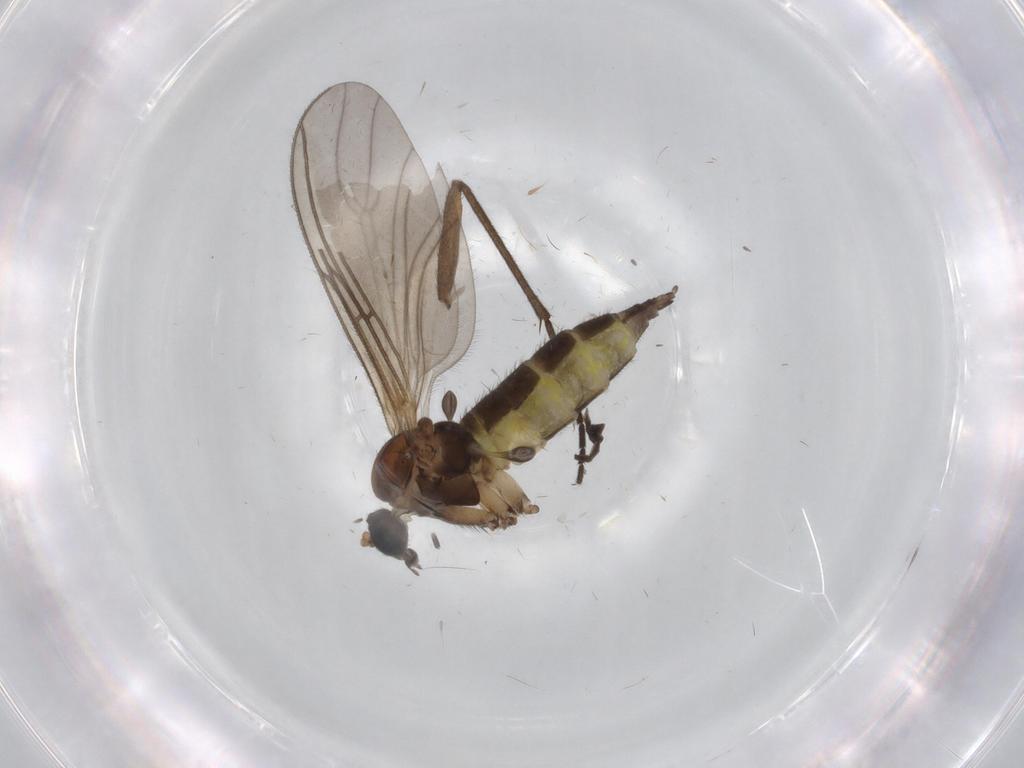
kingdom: Animalia
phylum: Arthropoda
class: Insecta
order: Diptera
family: Sciaridae
